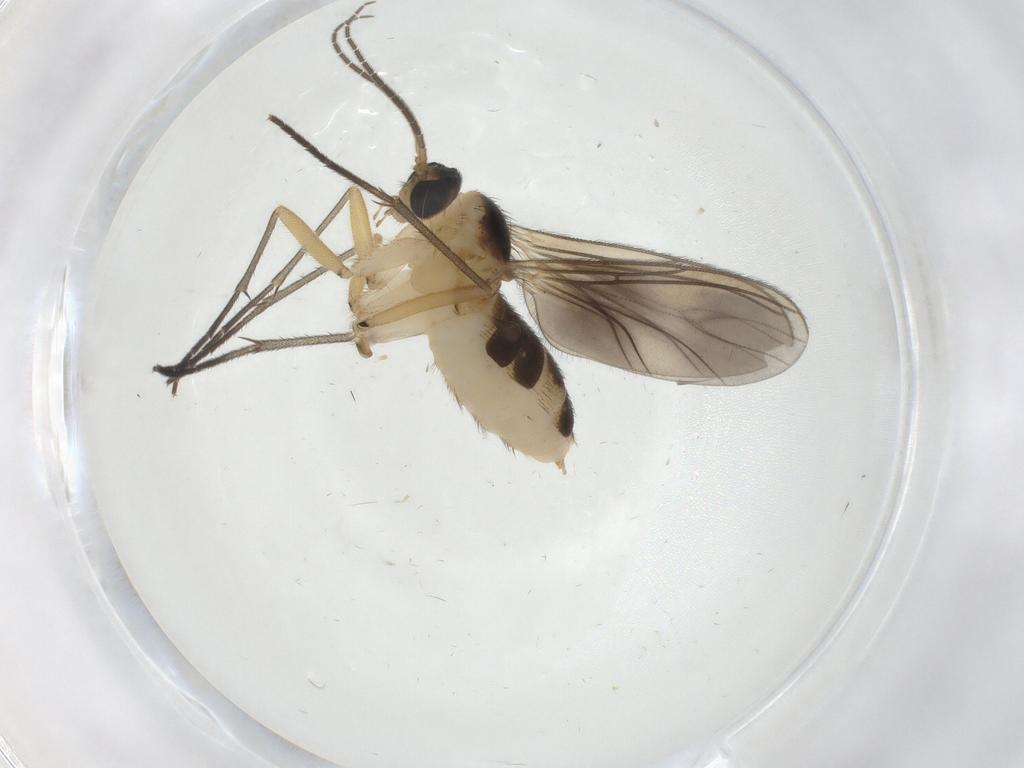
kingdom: Animalia
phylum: Arthropoda
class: Insecta
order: Diptera
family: Sciaridae
